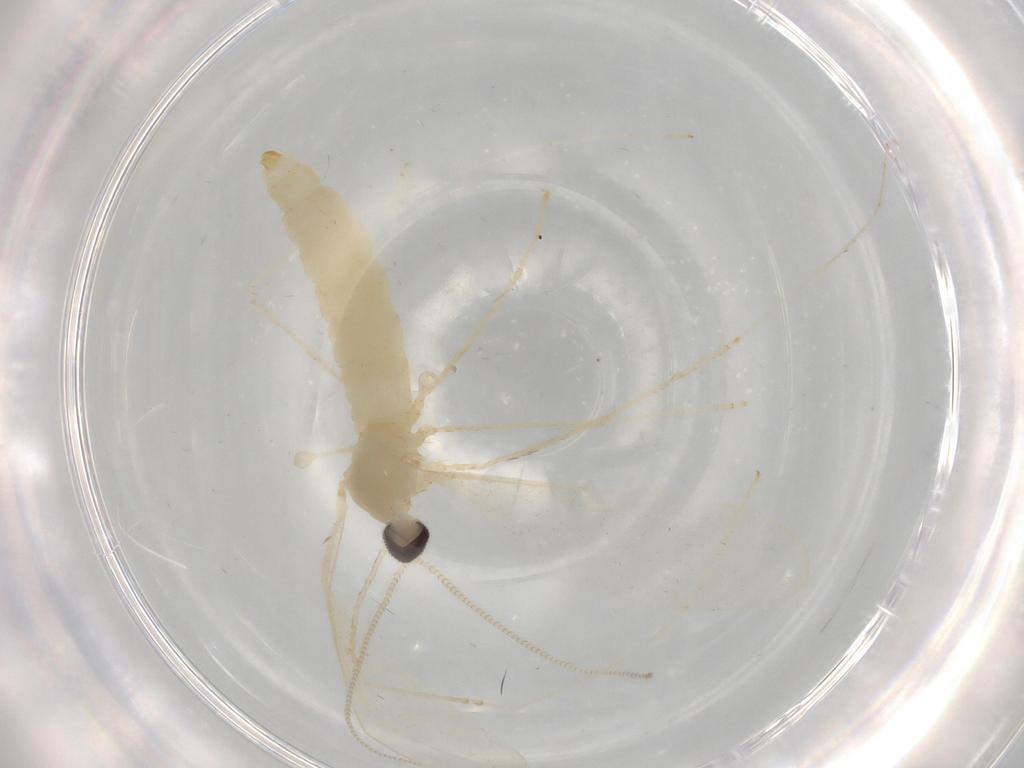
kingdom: Animalia
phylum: Arthropoda
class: Insecta
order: Diptera
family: Cecidomyiidae
